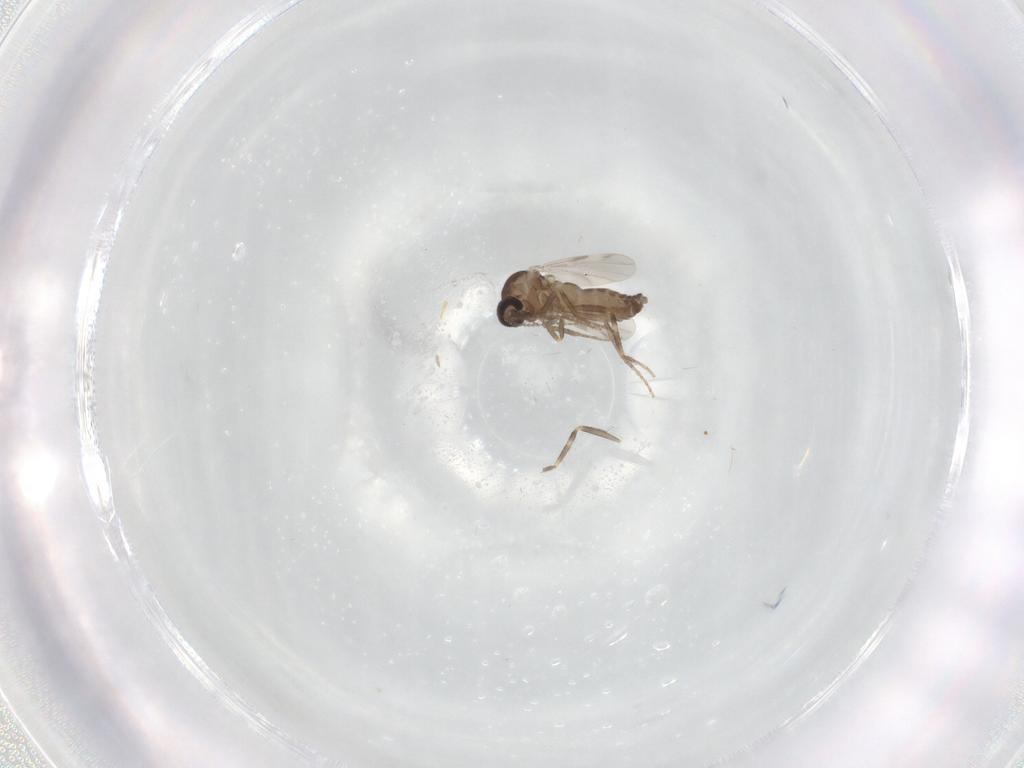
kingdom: Animalia
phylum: Arthropoda
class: Insecta
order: Diptera
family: Ceratopogonidae
